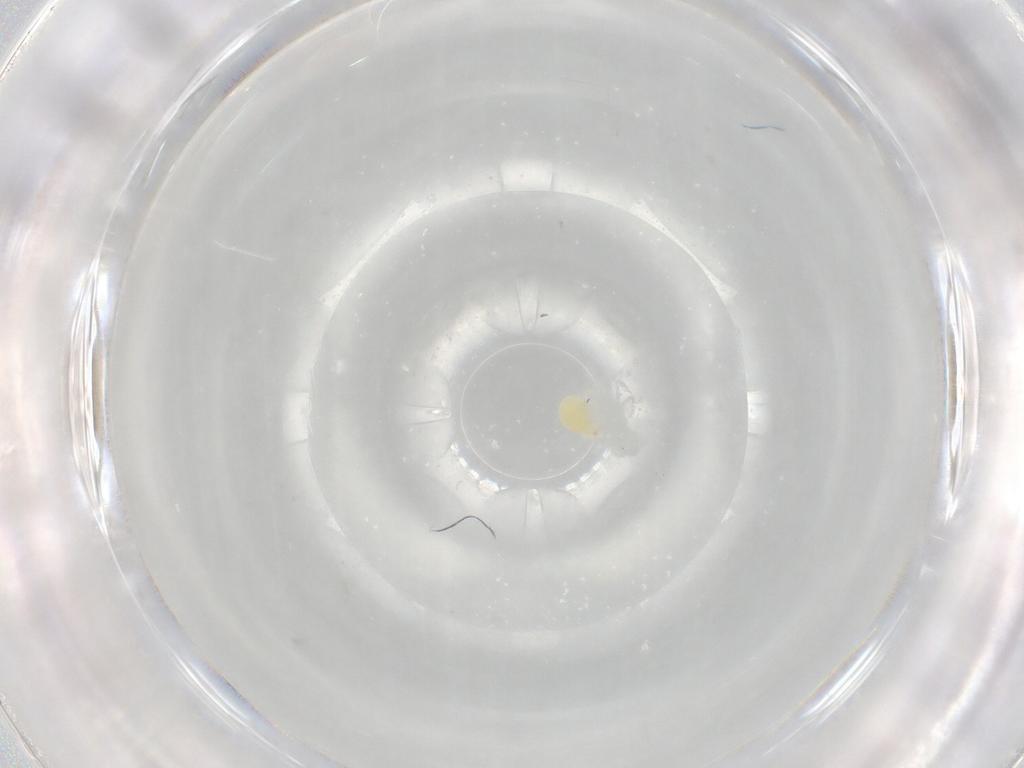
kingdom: Animalia
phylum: Arthropoda
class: Arachnida
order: Trombidiformes
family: Tetranychidae
